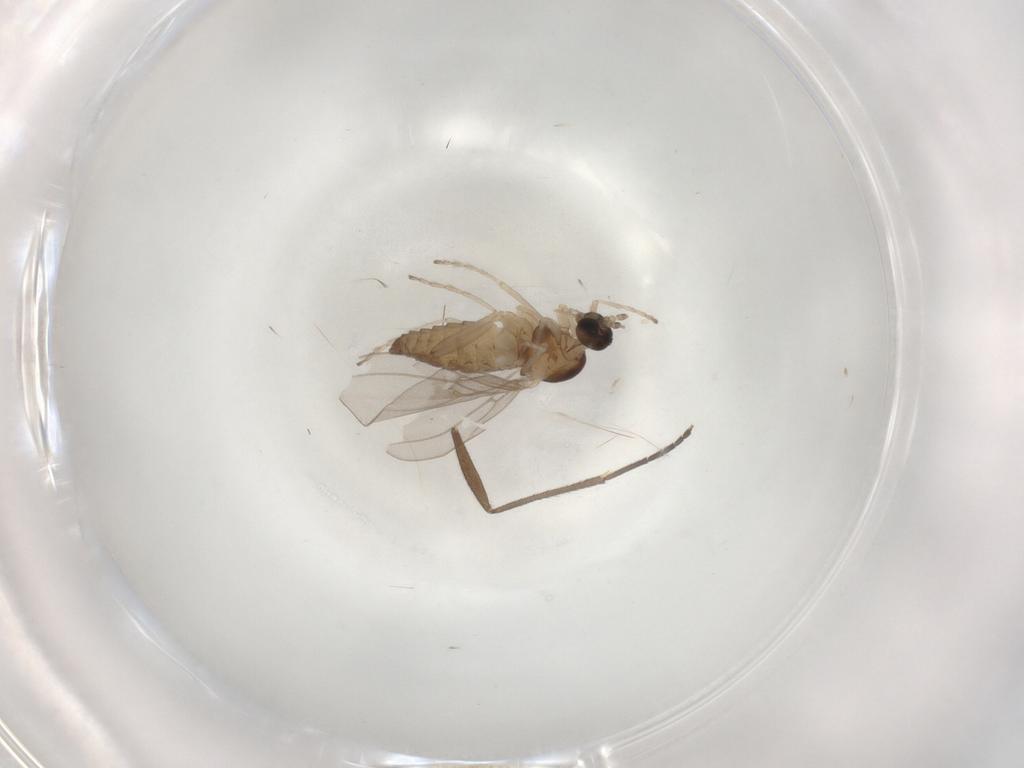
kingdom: Animalia
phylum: Arthropoda
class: Insecta
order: Diptera
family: Cecidomyiidae
